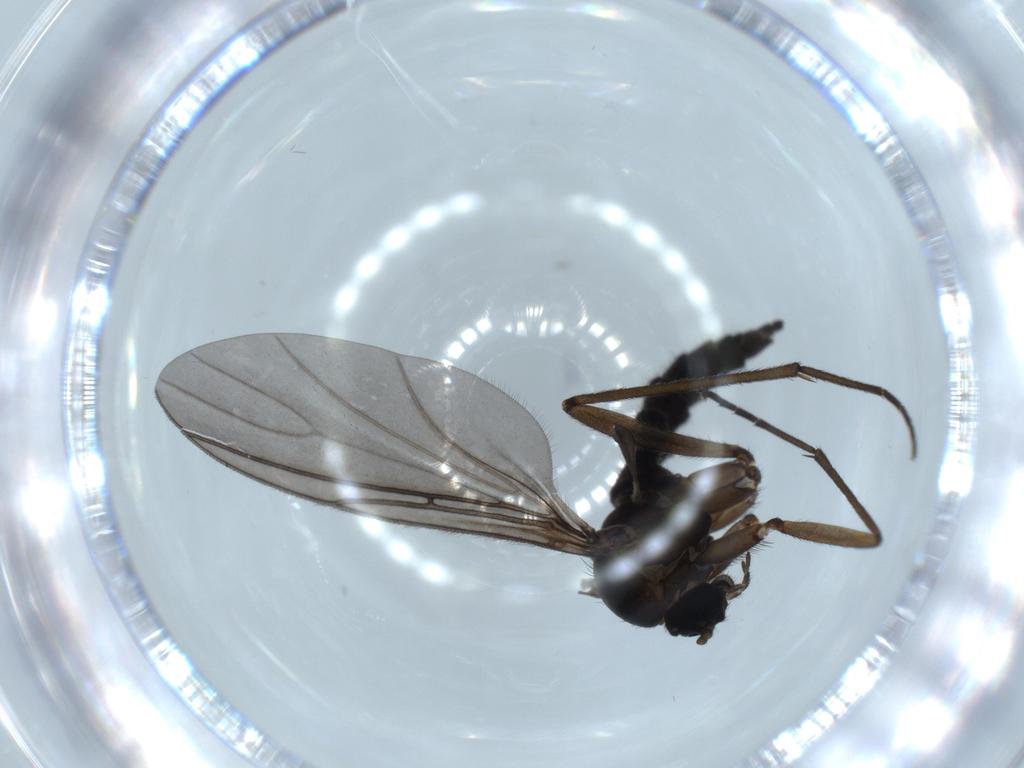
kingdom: Animalia
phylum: Arthropoda
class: Insecta
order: Diptera
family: Sciaridae
